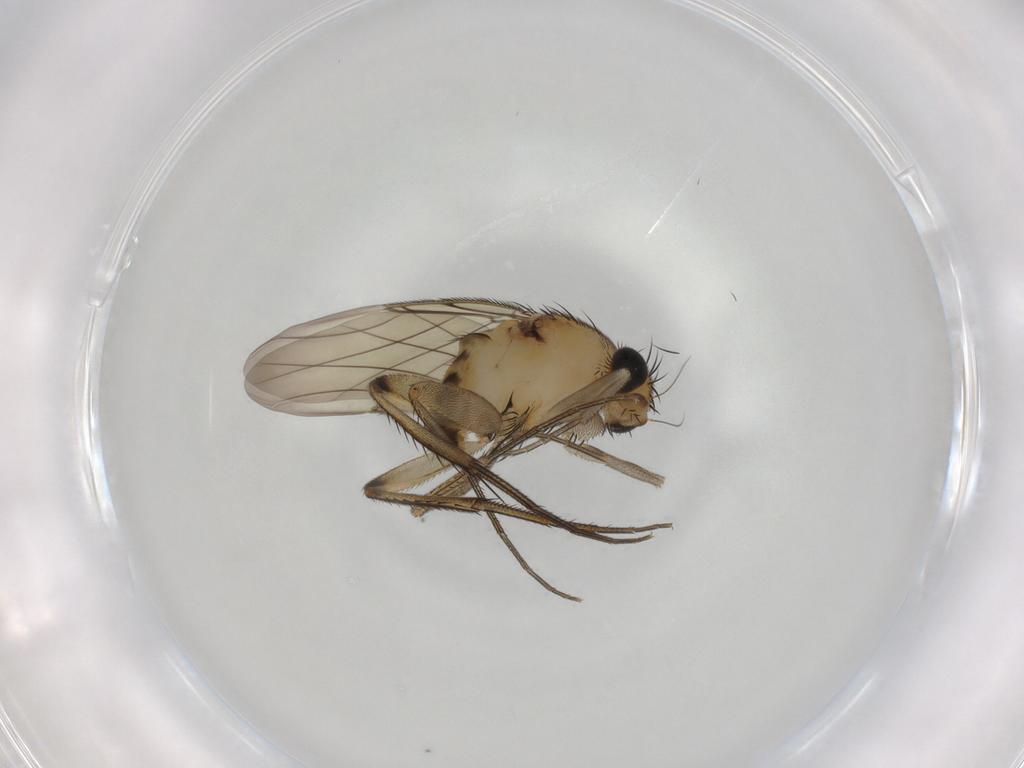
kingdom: Animalia
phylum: Arthropoda
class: Insecta
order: Diptera
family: Phoridae
